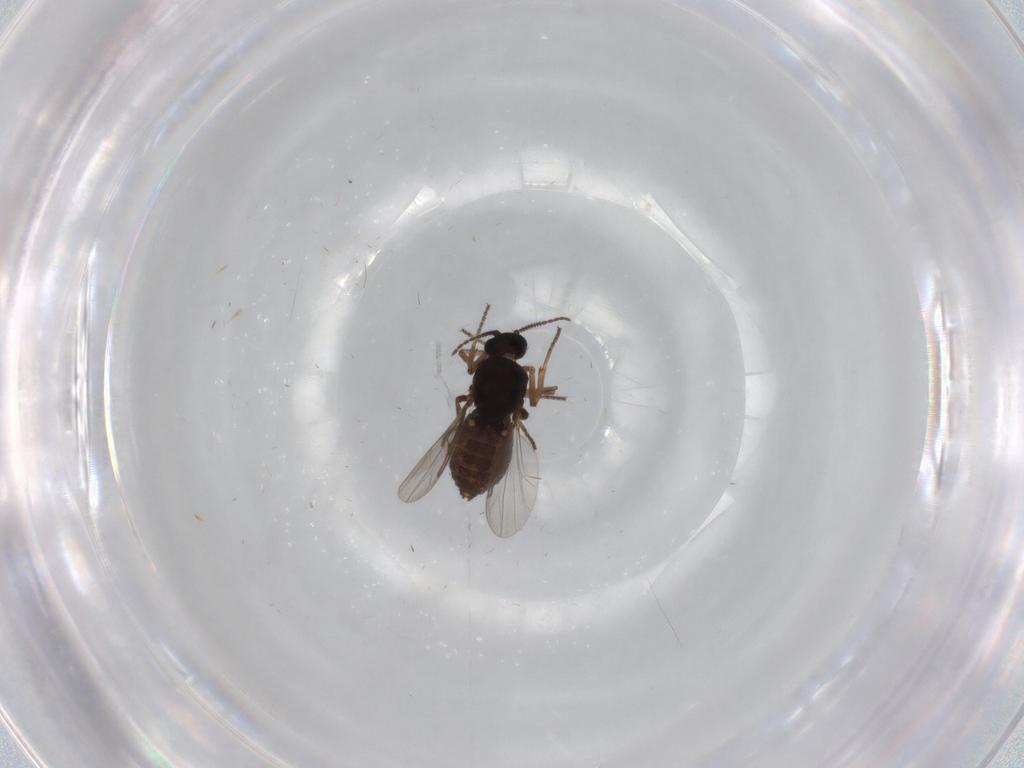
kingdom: Animalia
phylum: Arthropoda
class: Insecta
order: Diptera
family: Ceratopogonidae
